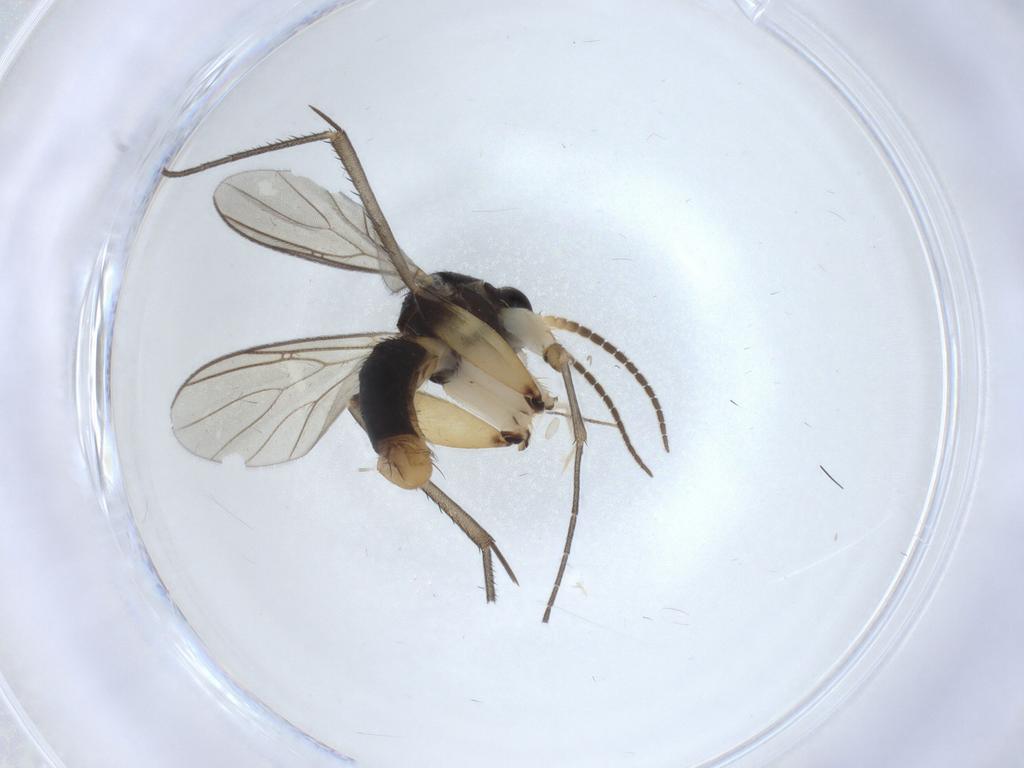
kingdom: Animalia
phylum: Arthropoda
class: Insecta
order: Diptera
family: Mycetophilidae
